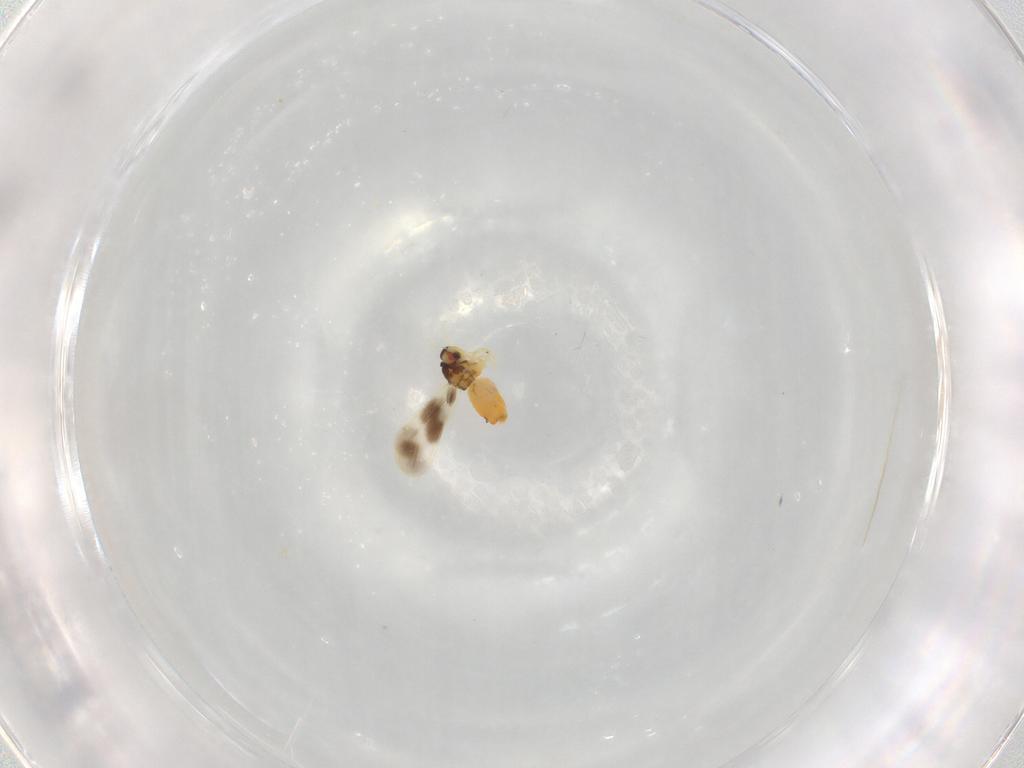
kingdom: Animalia
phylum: Arthropoda
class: Insecta
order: Hemiptera
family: Aleyrodidae
